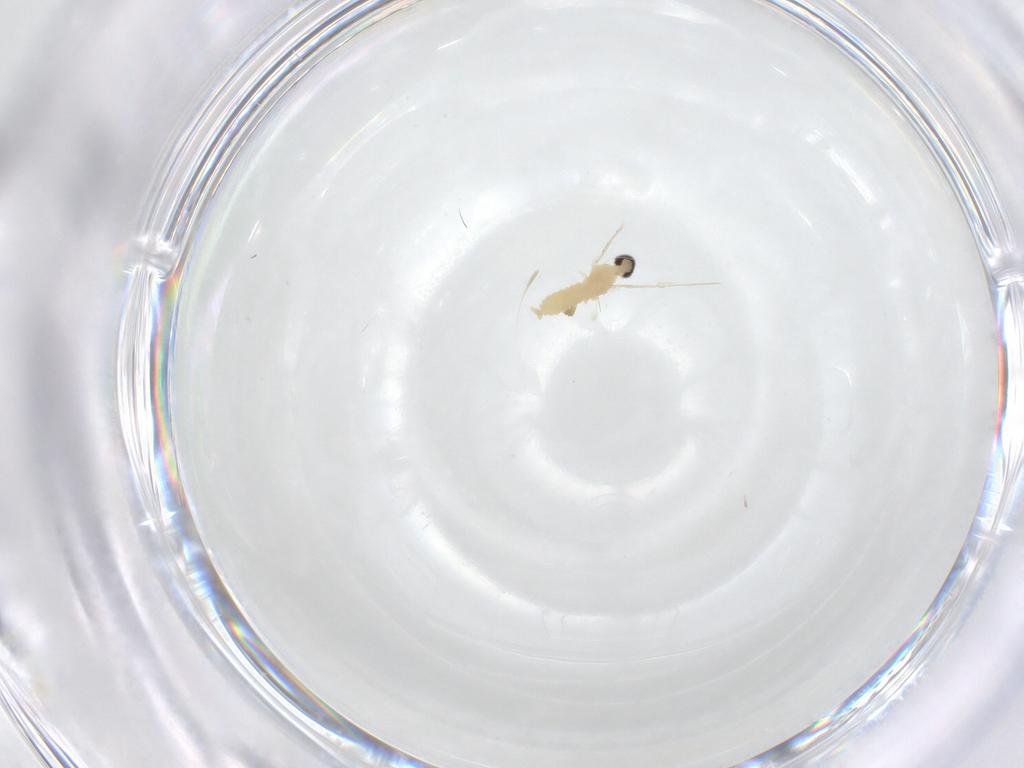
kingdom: Animalia
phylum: Arthropoda
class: Insecta
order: Diptera
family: Cecidomyiidae
